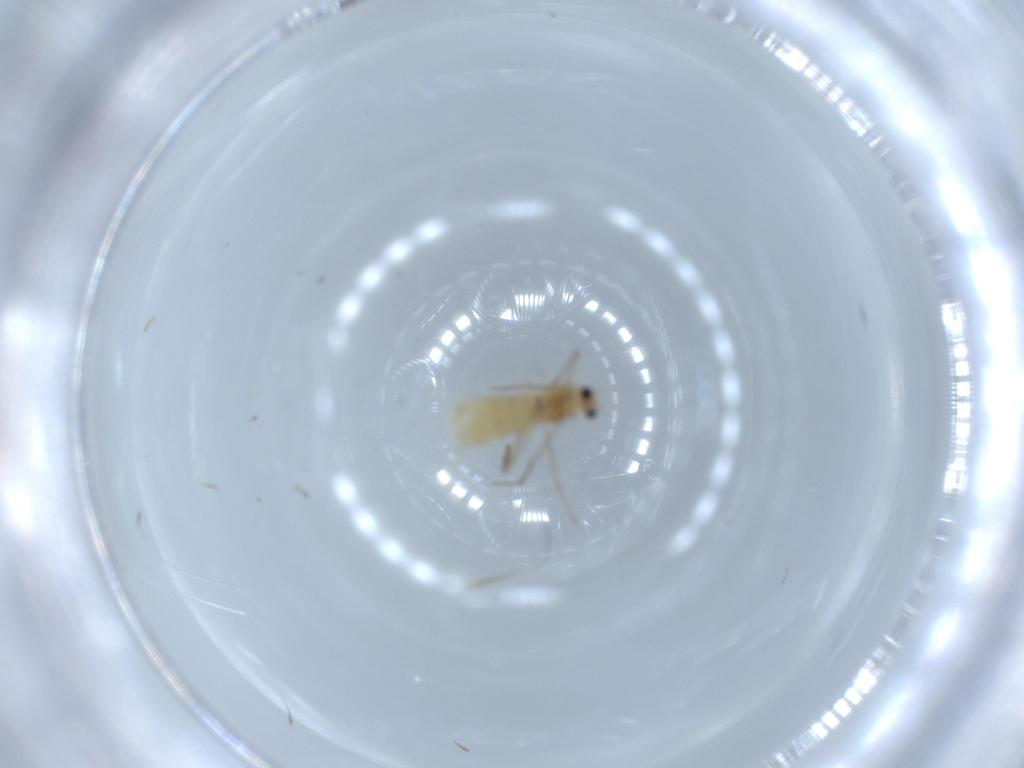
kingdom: Animalia
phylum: Arthropoda
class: Insecta
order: Diptera
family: Chironomidae
